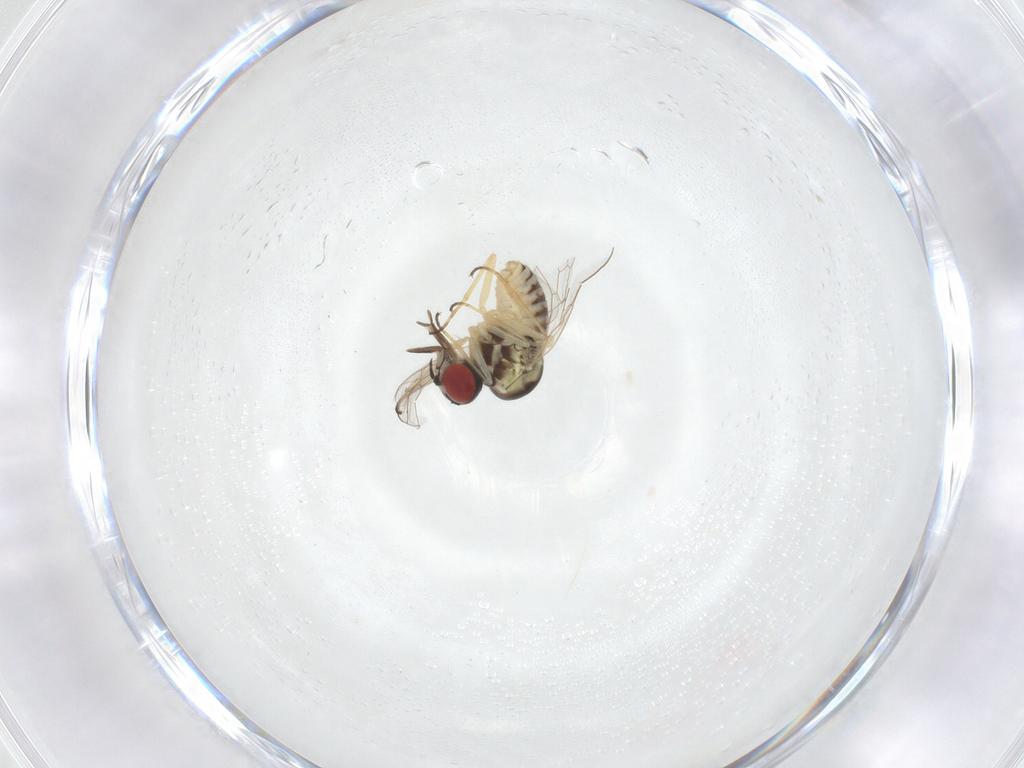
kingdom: Animalia
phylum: Arthropoda
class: Insecta
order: Diptera
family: Mythicomyiidae
